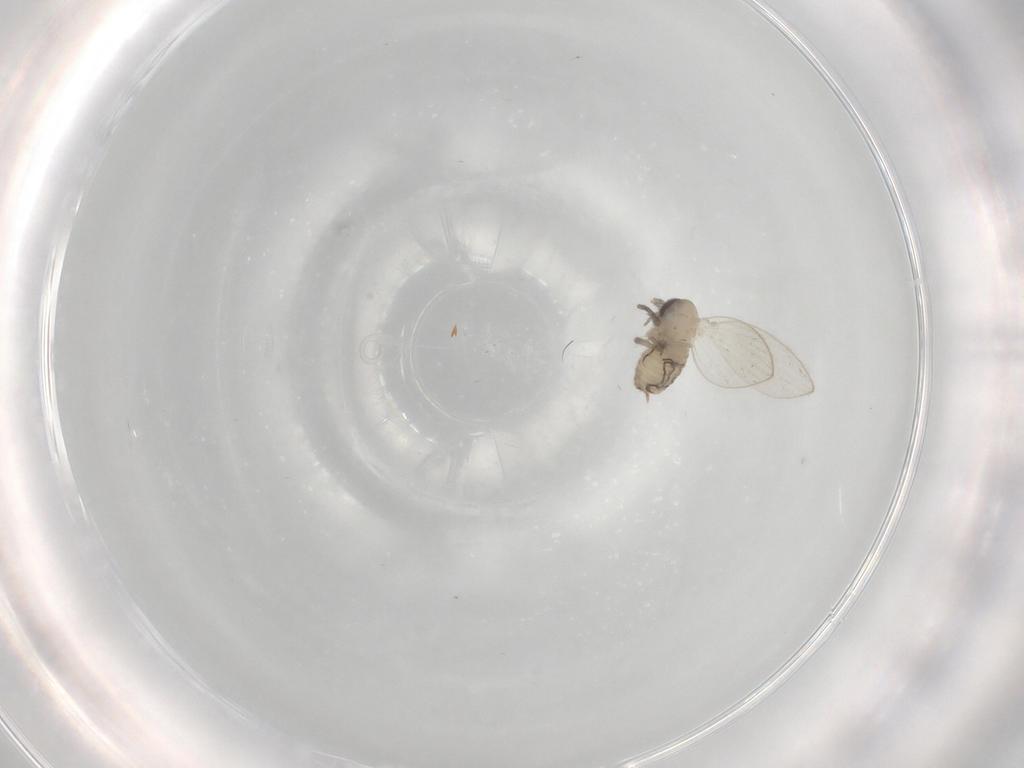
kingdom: Animalia
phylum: Arthropoda
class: Insecta
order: Diptera
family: Psychodidae
